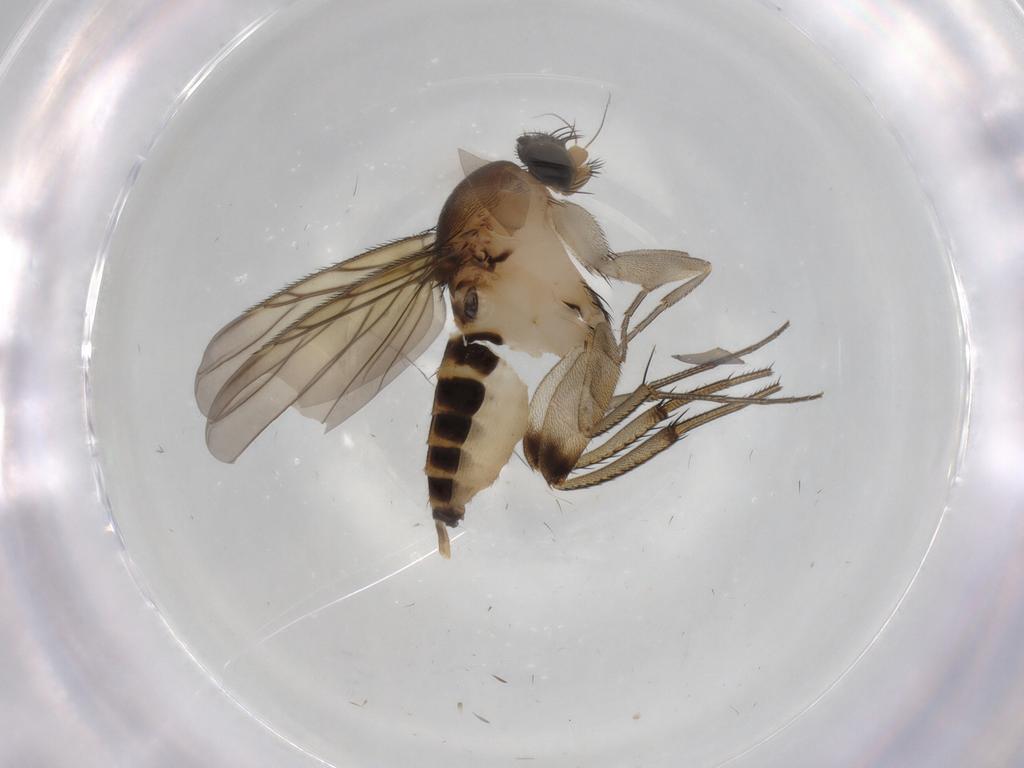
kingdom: Animalia
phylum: Arthropoda
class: Insecta
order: Diptera
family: Phoridae
